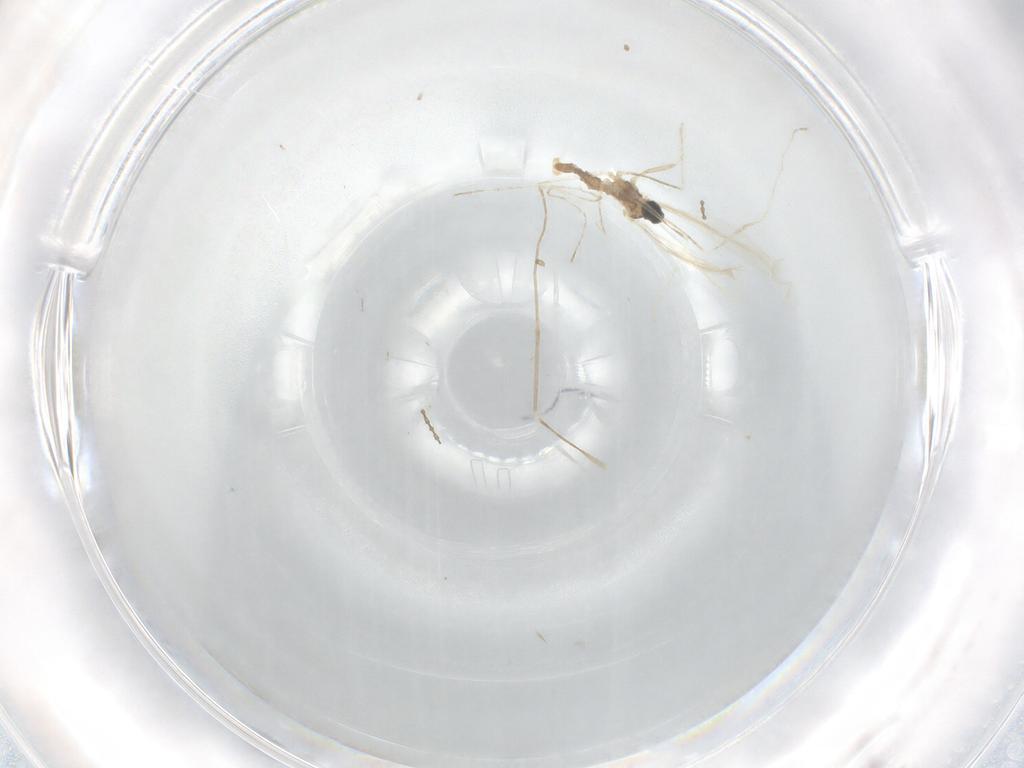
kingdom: Animalia
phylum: Arthropoda
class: Insecta
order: Diptera
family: Cecidomyiidae
